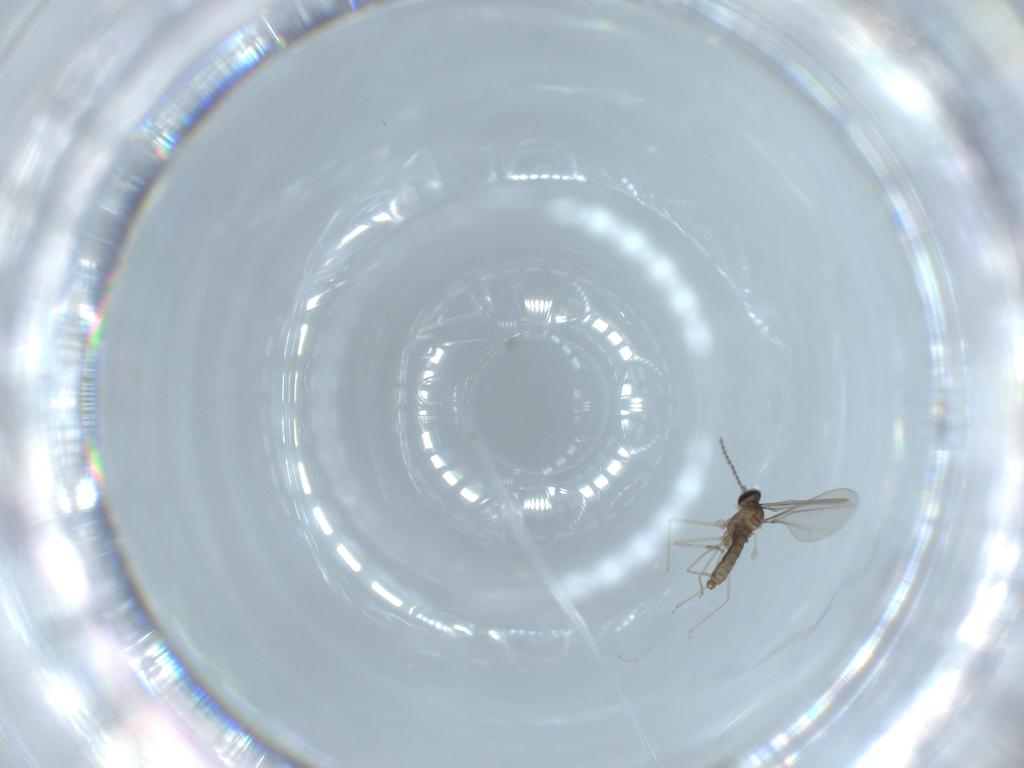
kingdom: Animalia
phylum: Arthropoda
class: Insecta
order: Diptera
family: Cecidomyiidae
